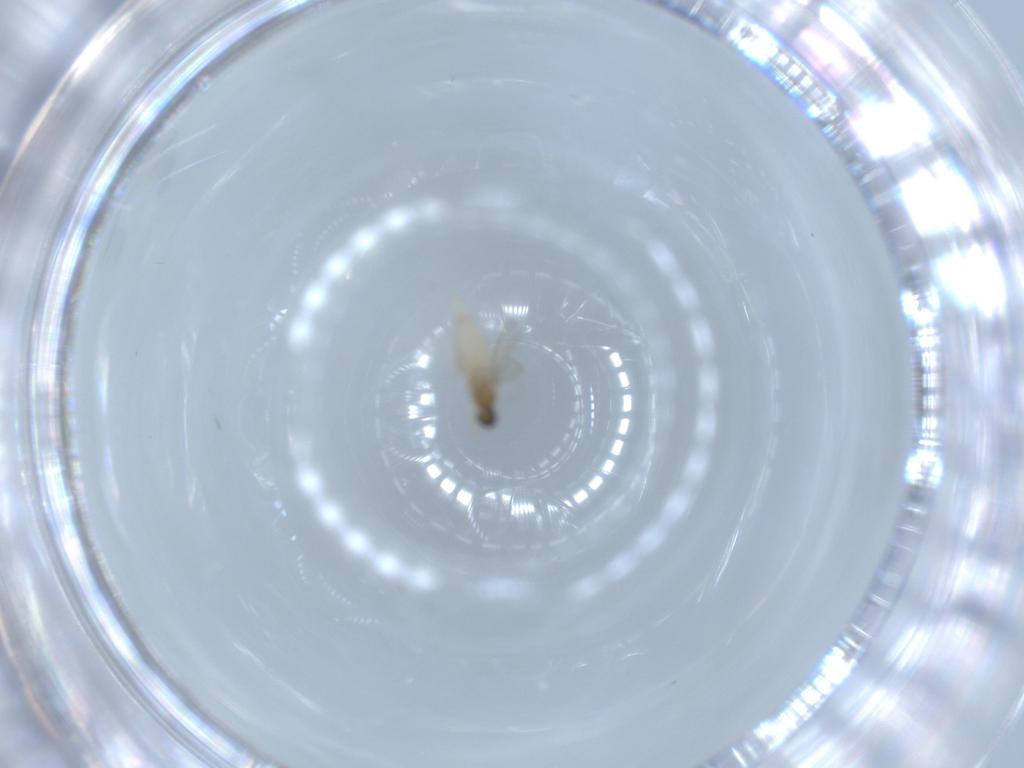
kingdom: Animalia
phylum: Arthropoda
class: Insecta
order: Diptera
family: Cecidomyiidae
